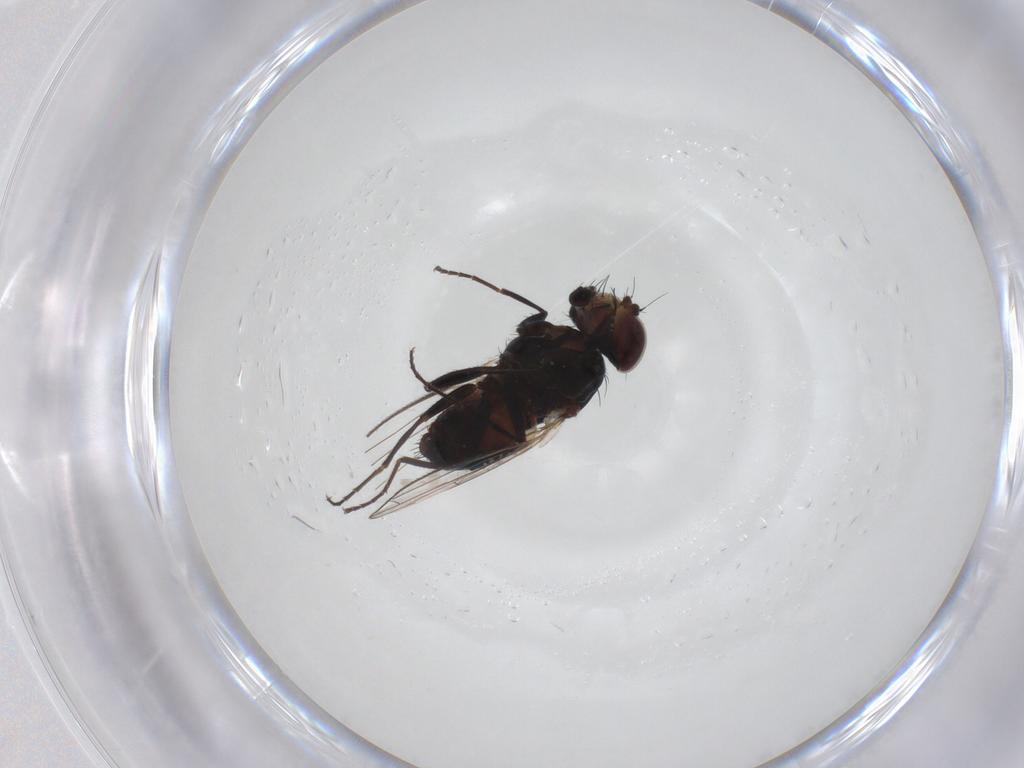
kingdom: Animalia
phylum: Arthropoda
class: Insecta
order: Diptera
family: Carnidae
